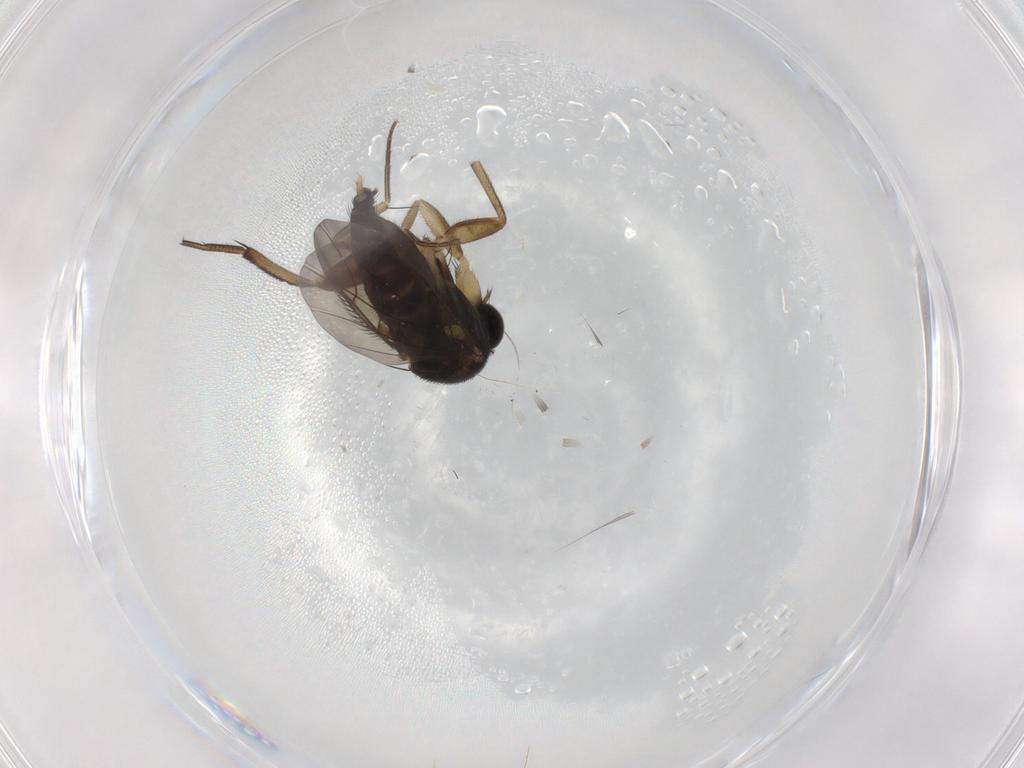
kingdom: Animalia
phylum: Arthropoda
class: Insecta
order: Diptera
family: Phoridae
